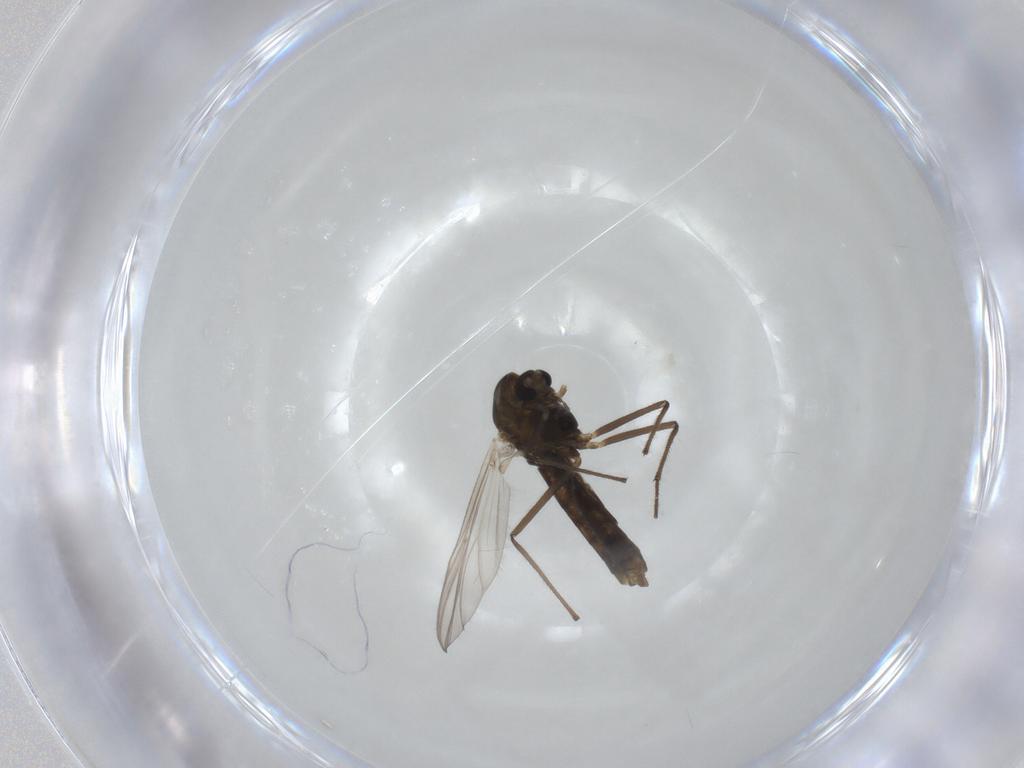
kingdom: Animalia
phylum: Arthropoda
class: Insecta
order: Diptera
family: Chironomidae
